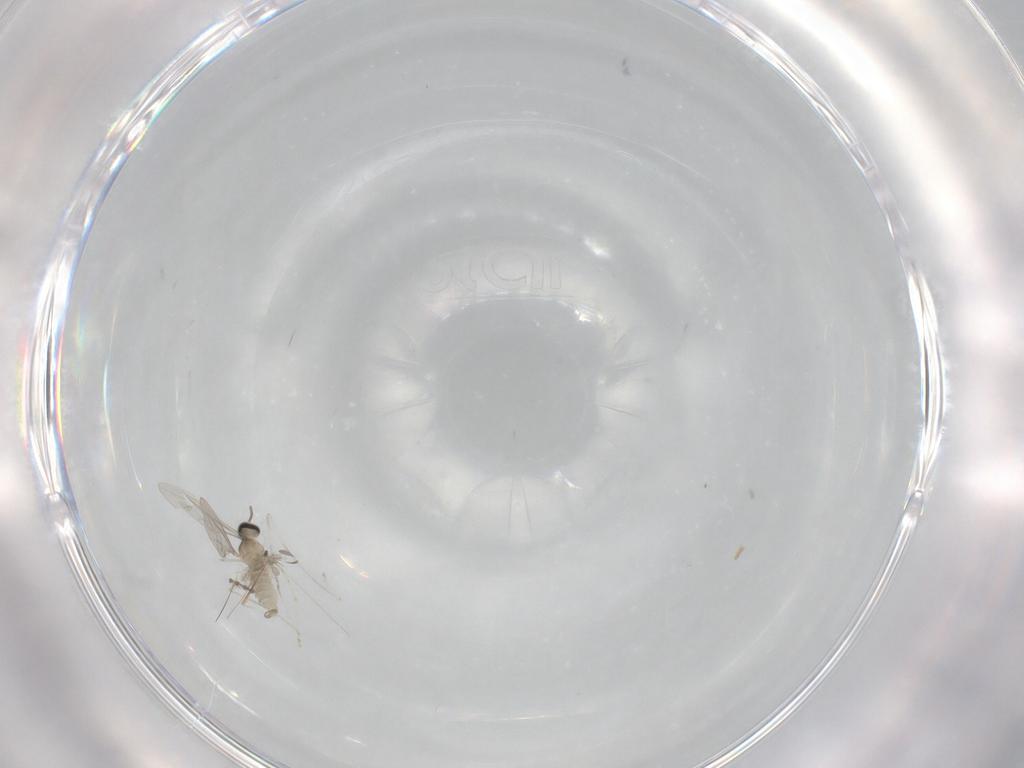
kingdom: Animalia
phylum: Arthropoda
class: Insecta
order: Diptera
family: Cecidomyiidae
